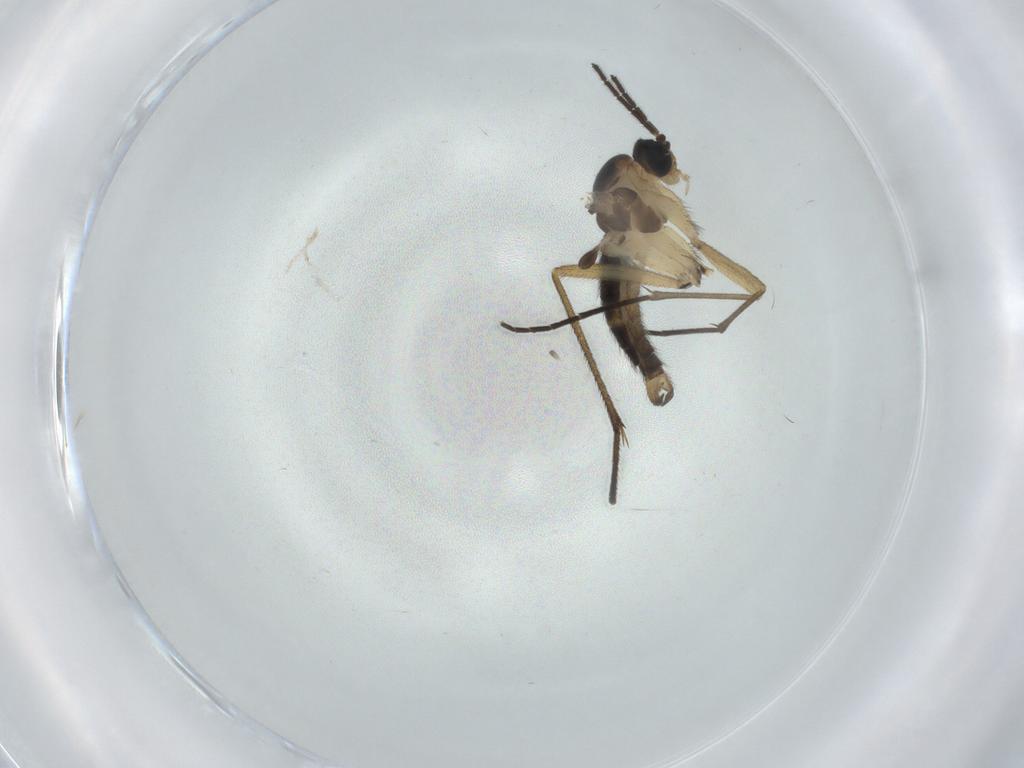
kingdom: Animalia
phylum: Arthropoda
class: Insecta
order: Diptera
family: Sciaridae
